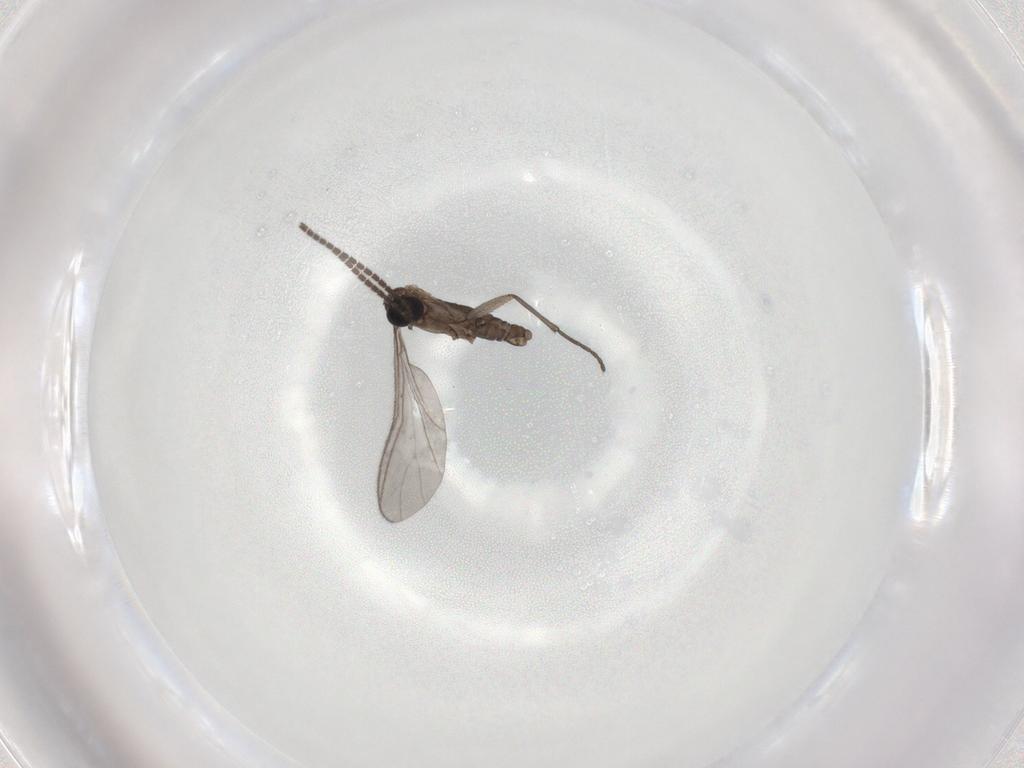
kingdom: Animalia
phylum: Arthropoda
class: Insecta
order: Diptera
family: Sciaridae
